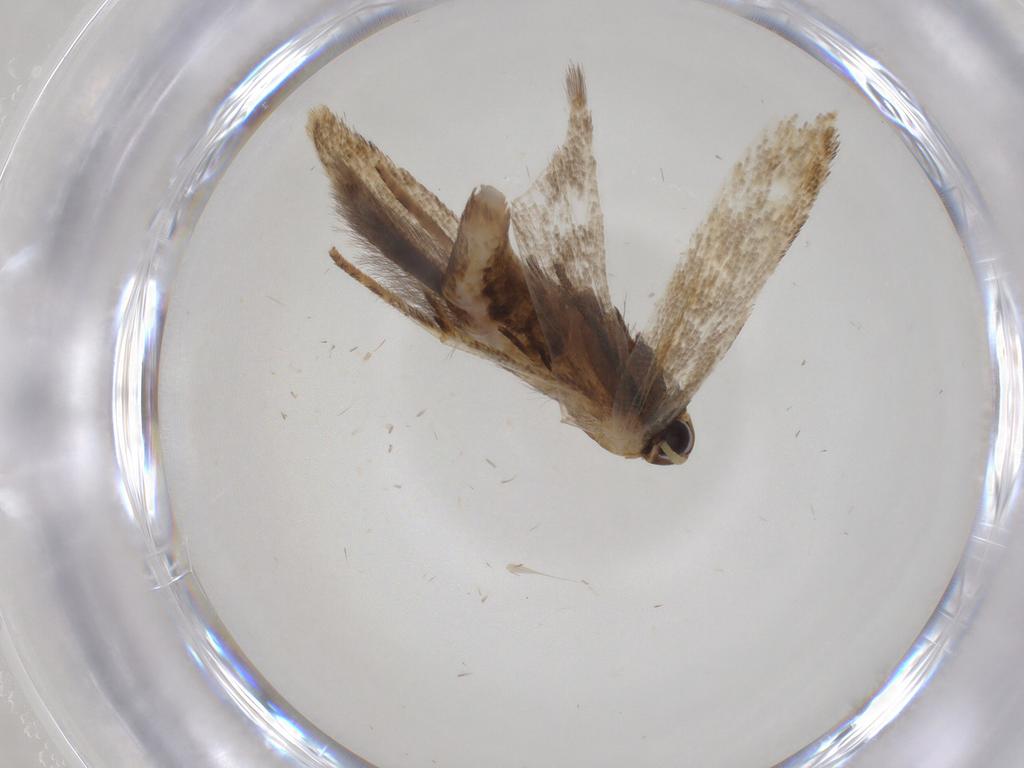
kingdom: Animalia
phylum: Arthropoda
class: Insecta
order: Lepidoptera
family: Gelechiidae
